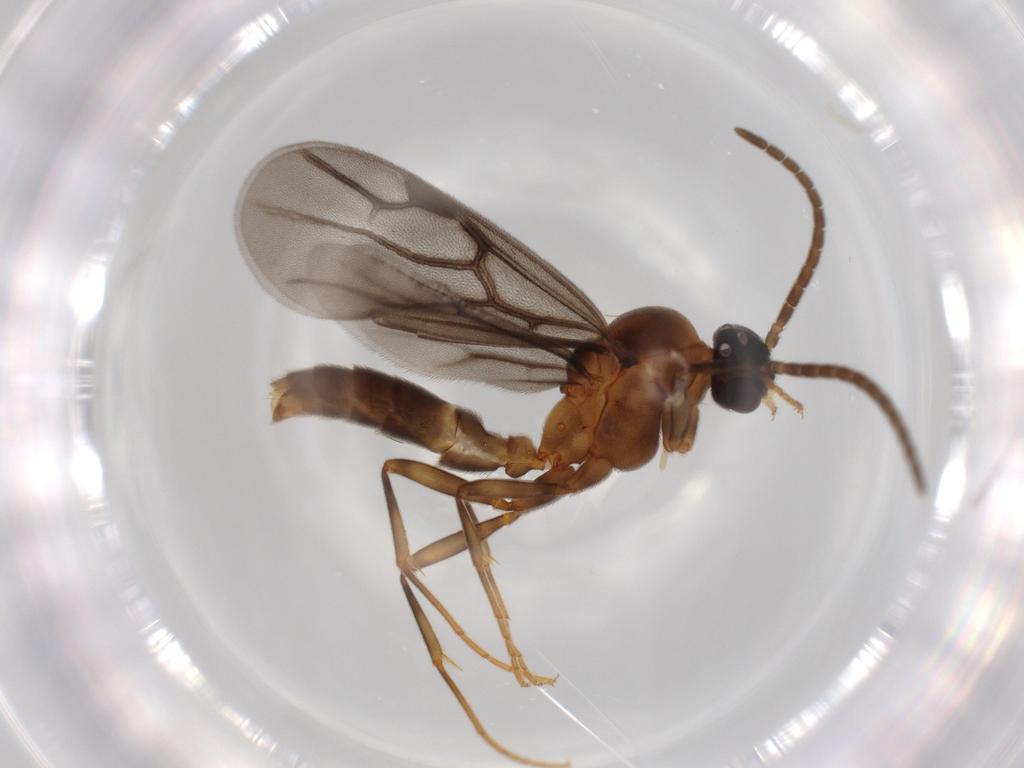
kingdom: Animalia
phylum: Arthropoda
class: Insecta
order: Hymenoptera
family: Formicidae
